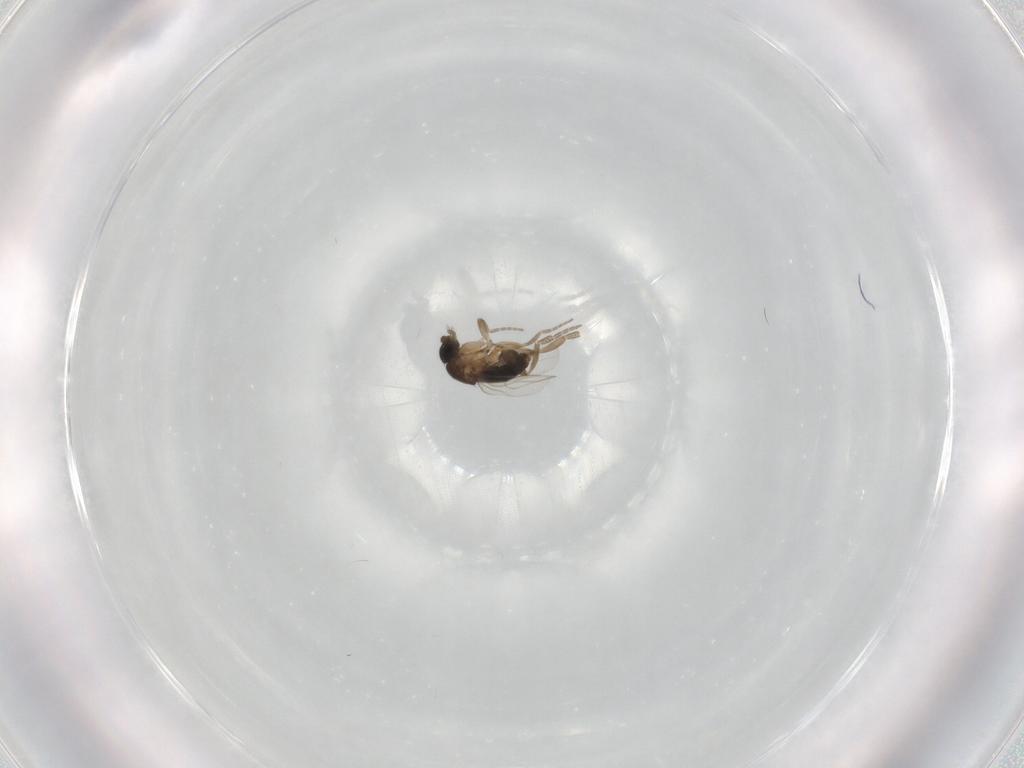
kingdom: Animalia
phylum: Arthropoda
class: Insecta
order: Diptera
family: Phoridae
